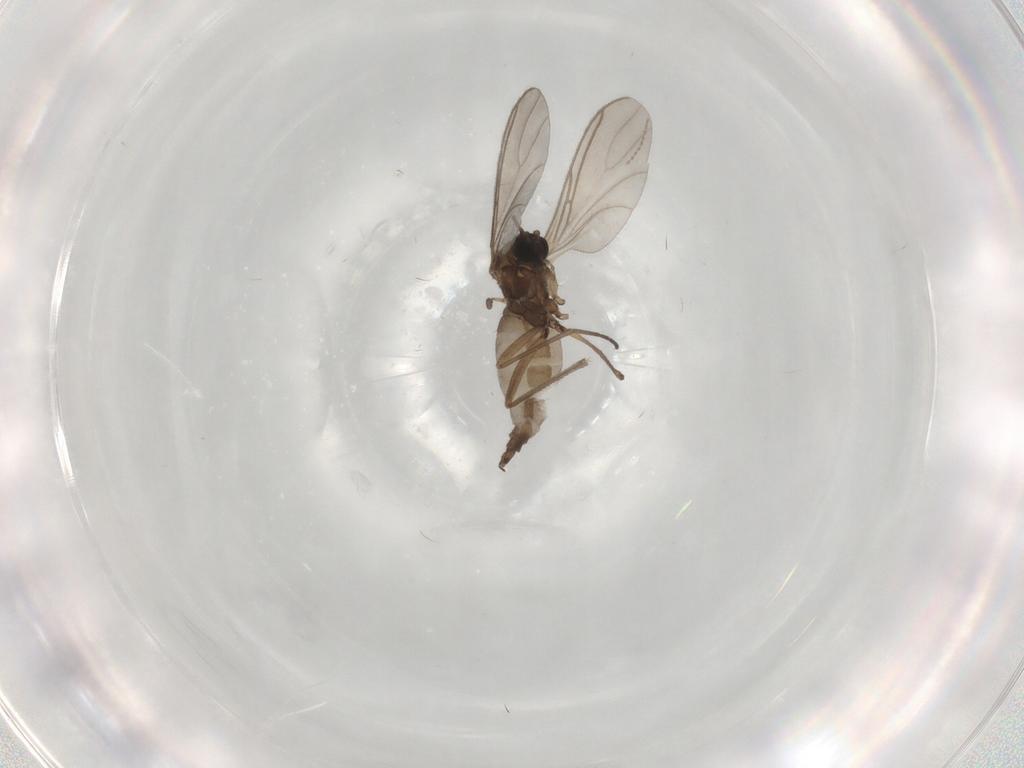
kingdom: Animalia
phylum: Arthropoda
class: Insecta
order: Diptera
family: Sciaridae
